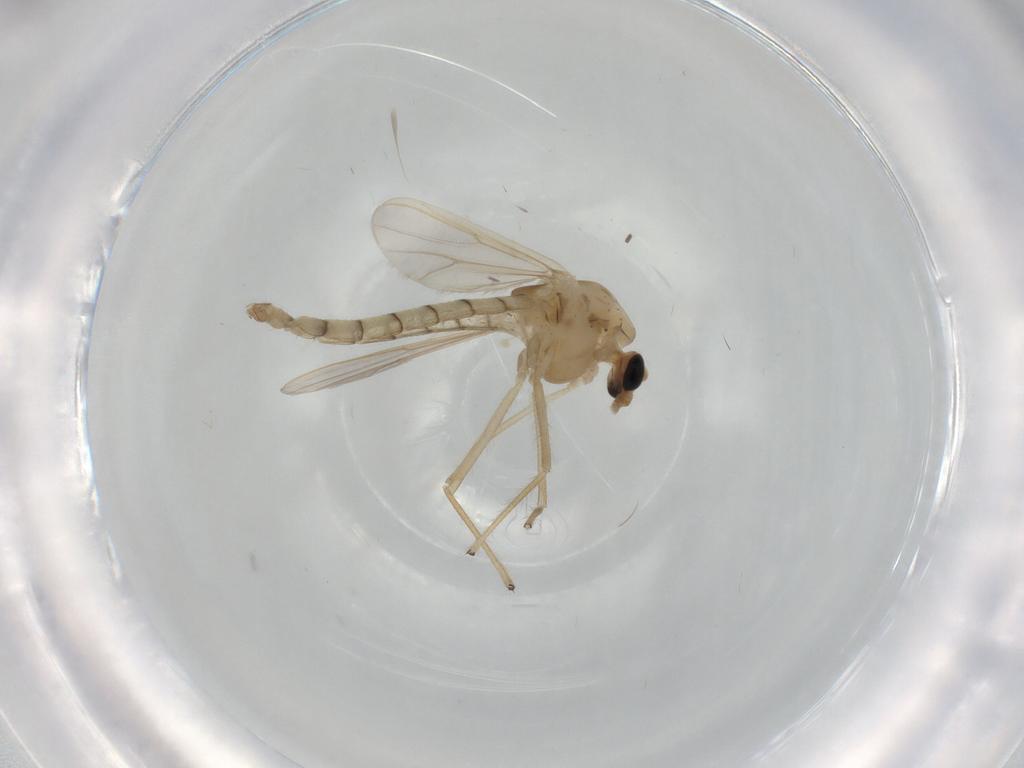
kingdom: Animalia
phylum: Arthropoda
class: Insecta
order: Diptera
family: Chironomidae
